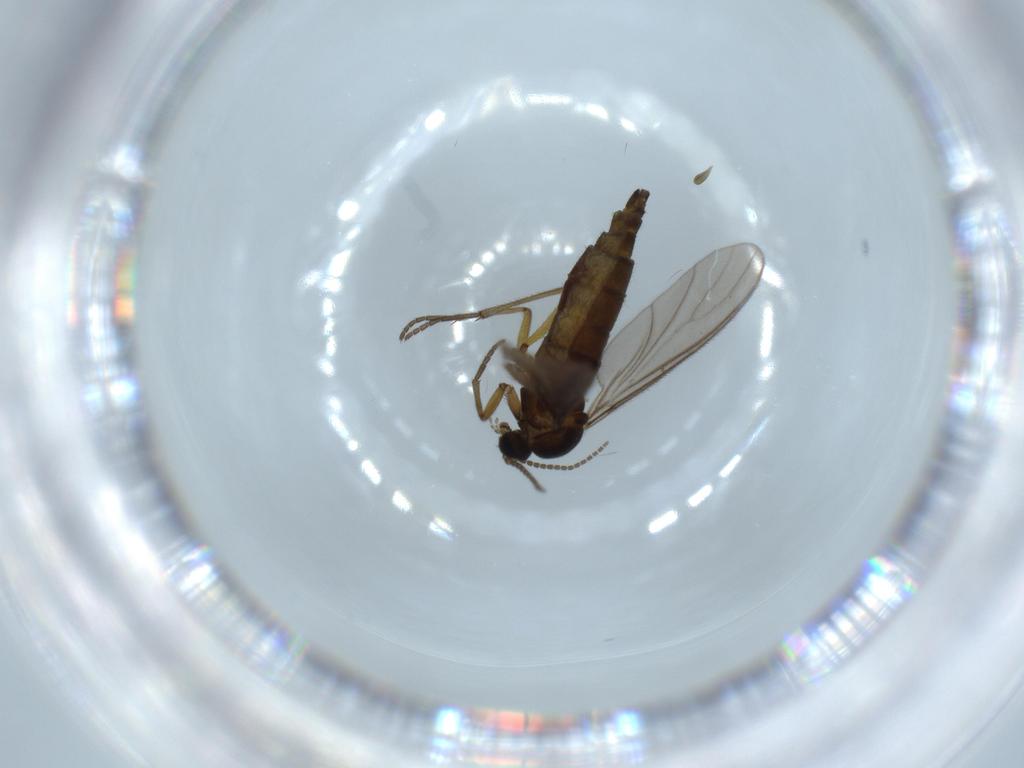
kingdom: Animalia
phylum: Arthropoda
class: Insecta
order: Diptera
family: Sciaridae
